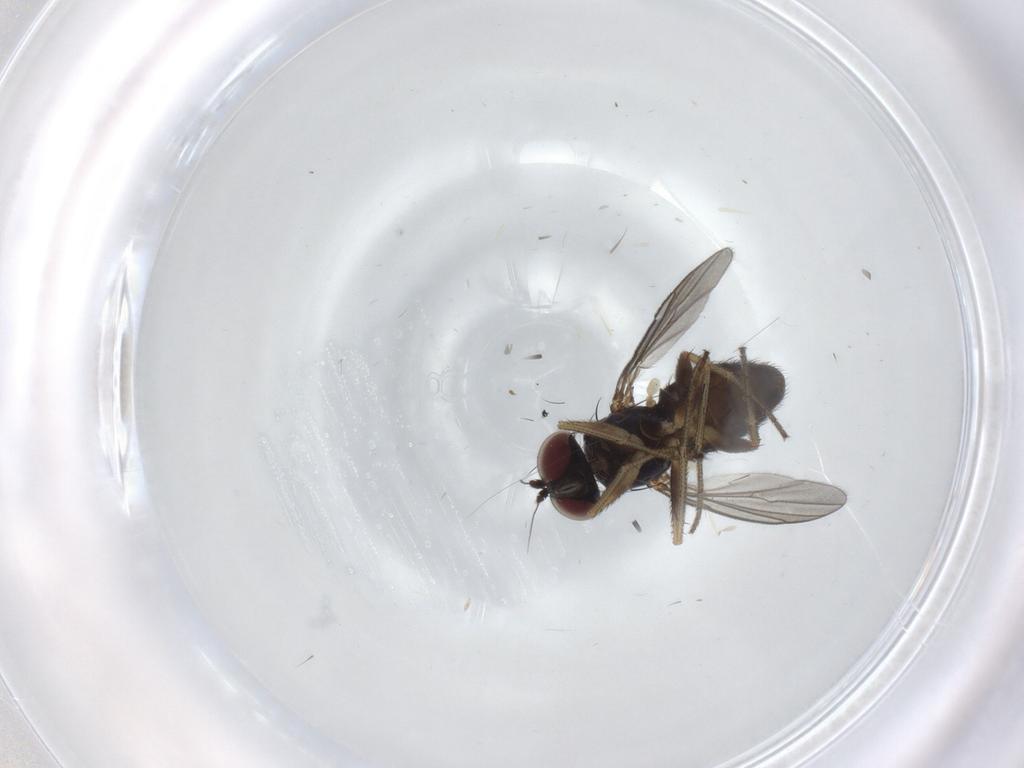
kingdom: Animalia
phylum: Arthropoda
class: Insecta
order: Diptera
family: Dolichopodidae
